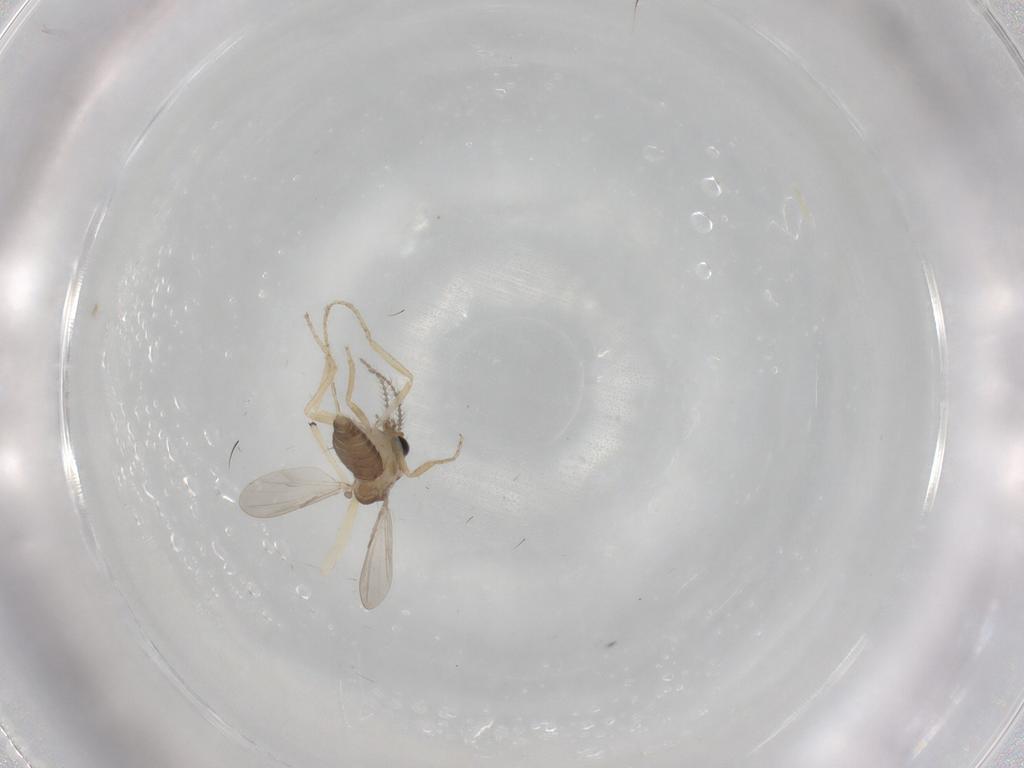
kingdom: Animalia
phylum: Arthropoda
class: Insecta
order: Diptera
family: Ceratopogonidae
